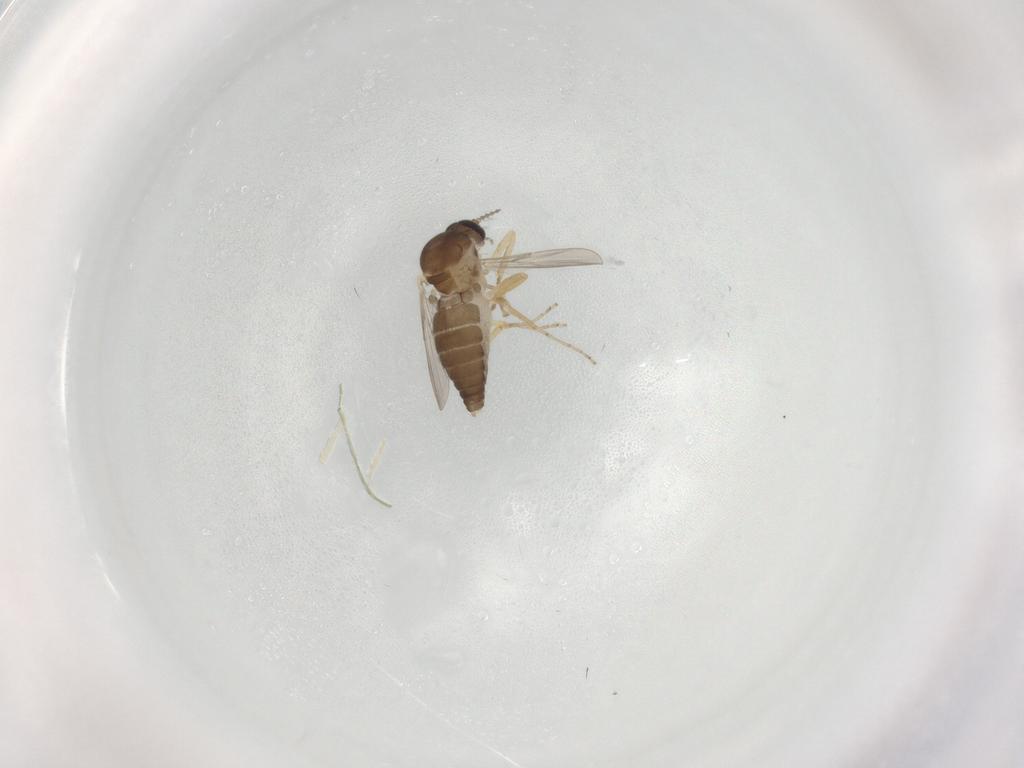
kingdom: Animalia
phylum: Arthropoda
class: Insecta
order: Diptera
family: Ceratopogonidae
